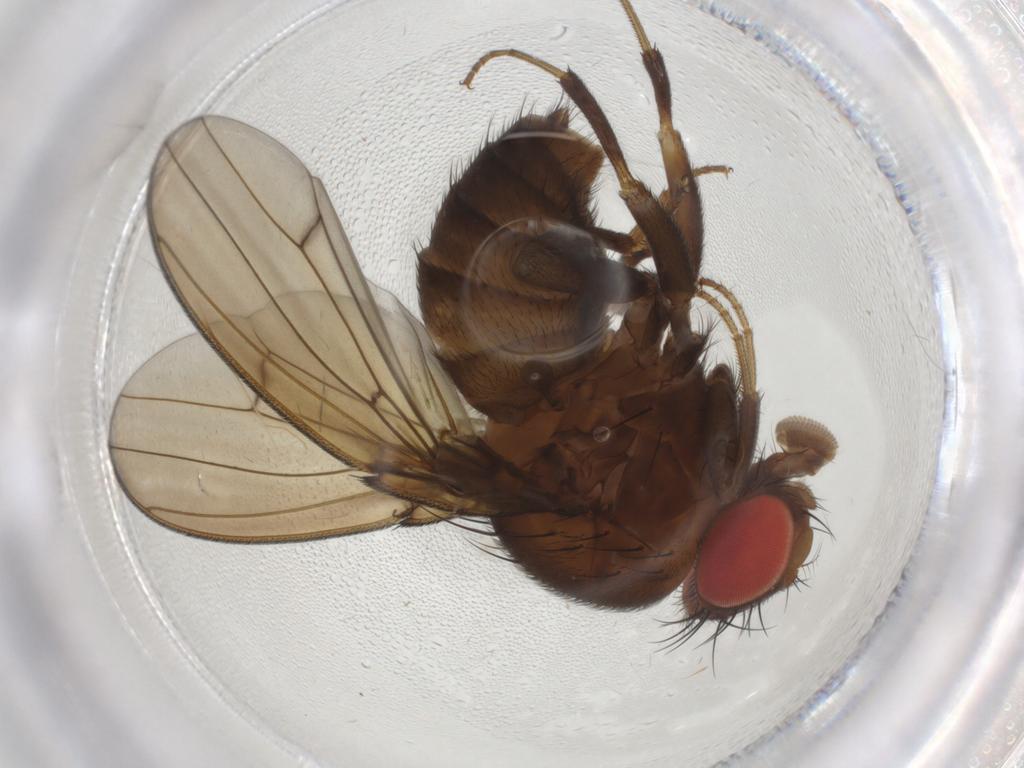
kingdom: Animalia
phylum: Arthropoda
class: Insecta
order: Diptera
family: Drosophilidae
